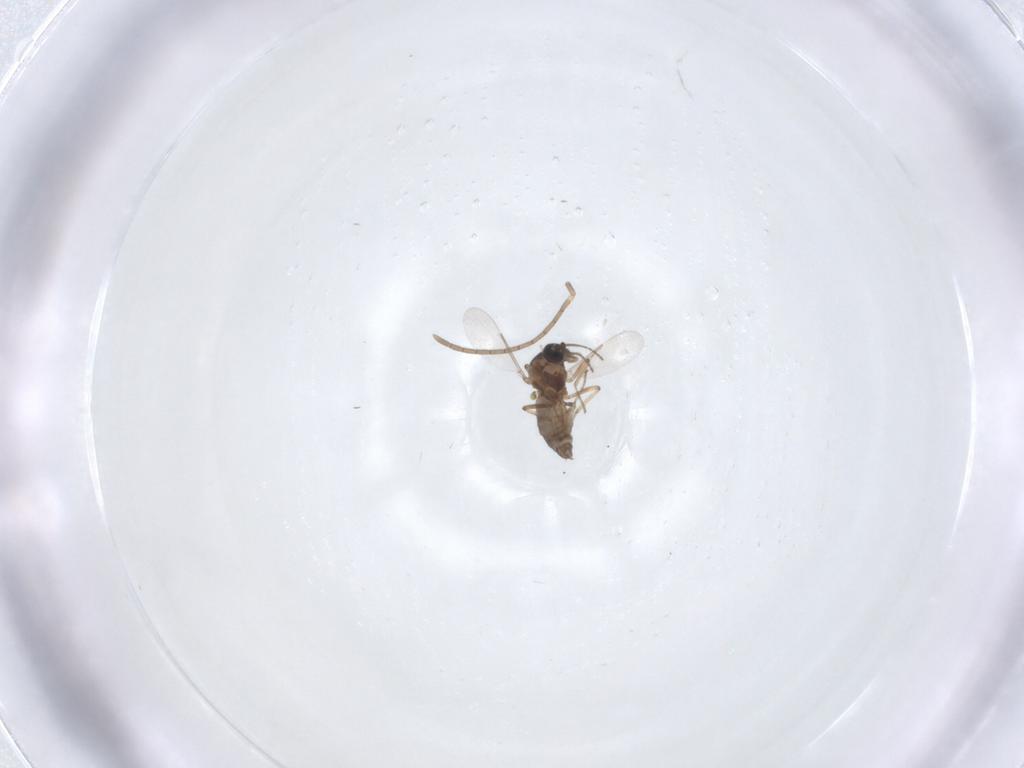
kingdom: Animalia
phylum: Arthropoda
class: Insecta
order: Diptera
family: Ceratopogonidae
